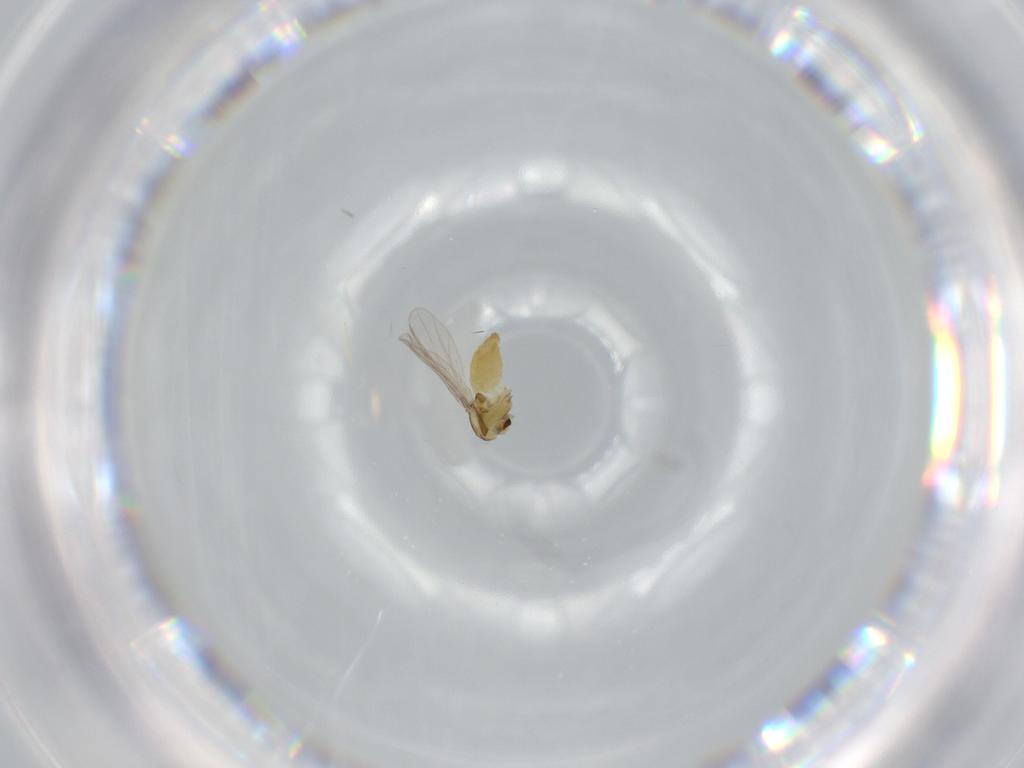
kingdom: Animalia
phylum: Arthropoda
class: Insecta
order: Diptera
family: Chironomidae
